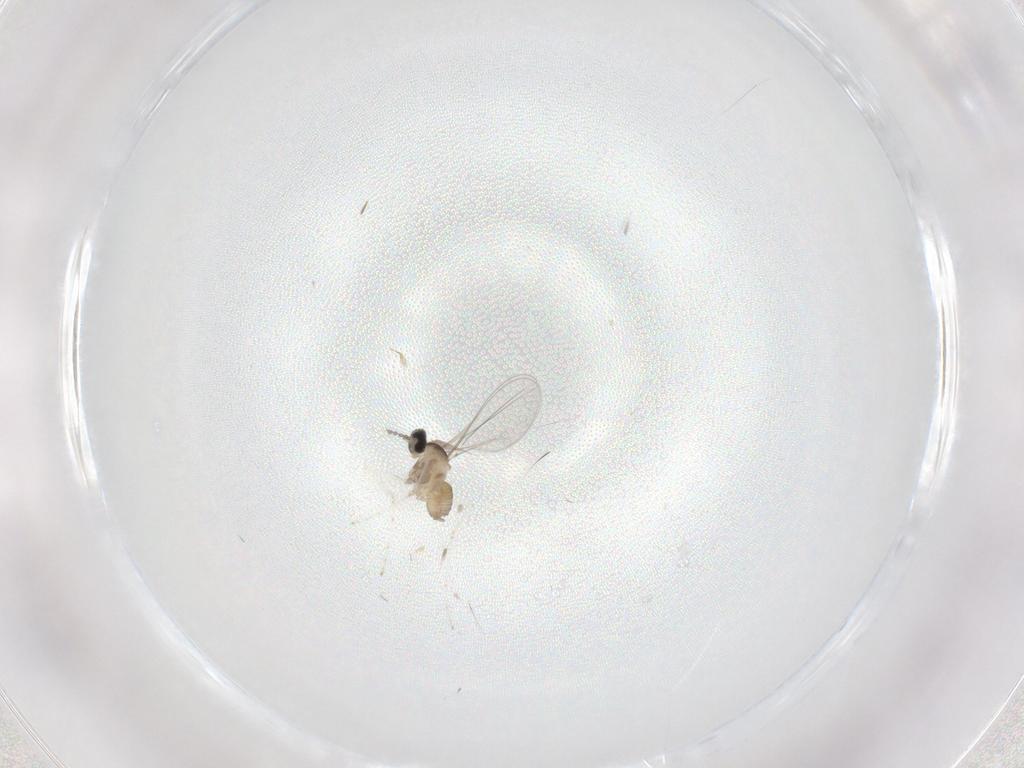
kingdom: Animalia
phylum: Arthropoda
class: Insecta
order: Diptera
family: Cecidomyiidae
